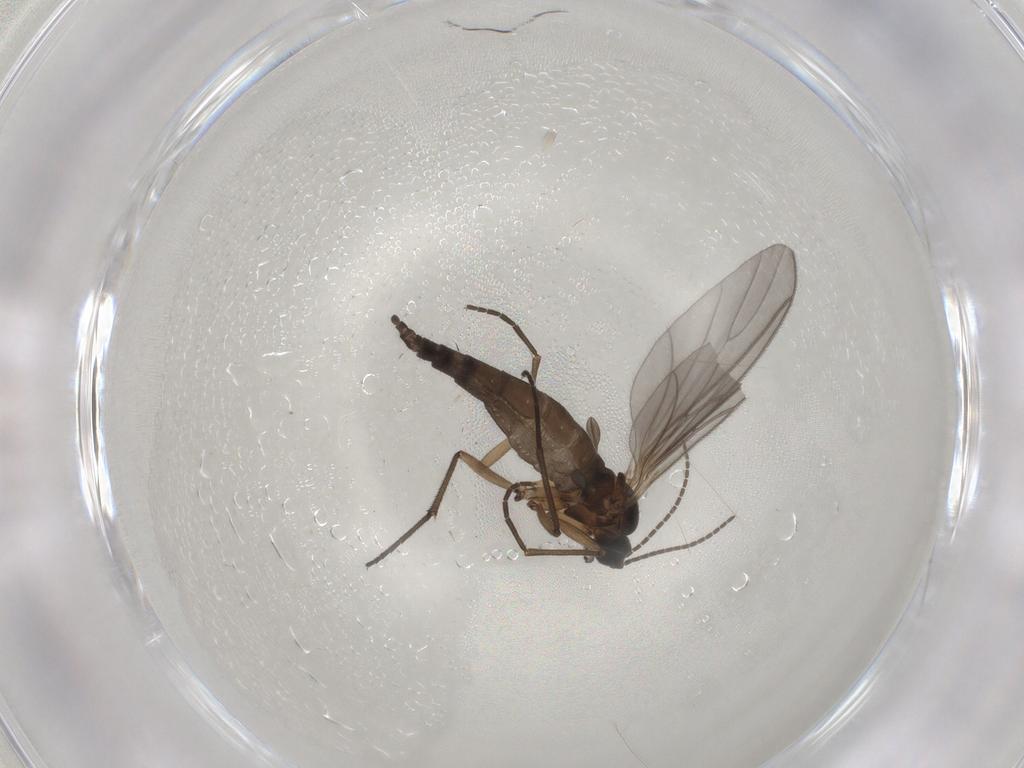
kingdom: Animalia
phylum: Arthropoda
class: Insecta
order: Diptera
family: Sciaridae
